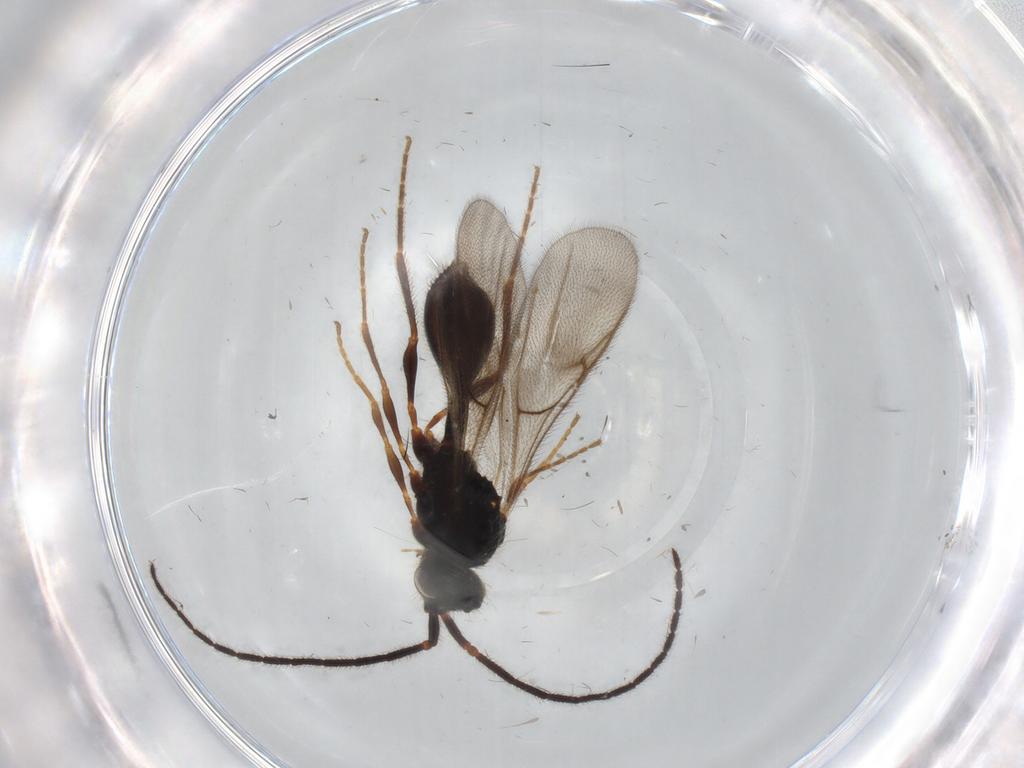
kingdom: Animalia
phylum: Arthropoda
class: Insecta
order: Hymenoptera
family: Diapriidae
